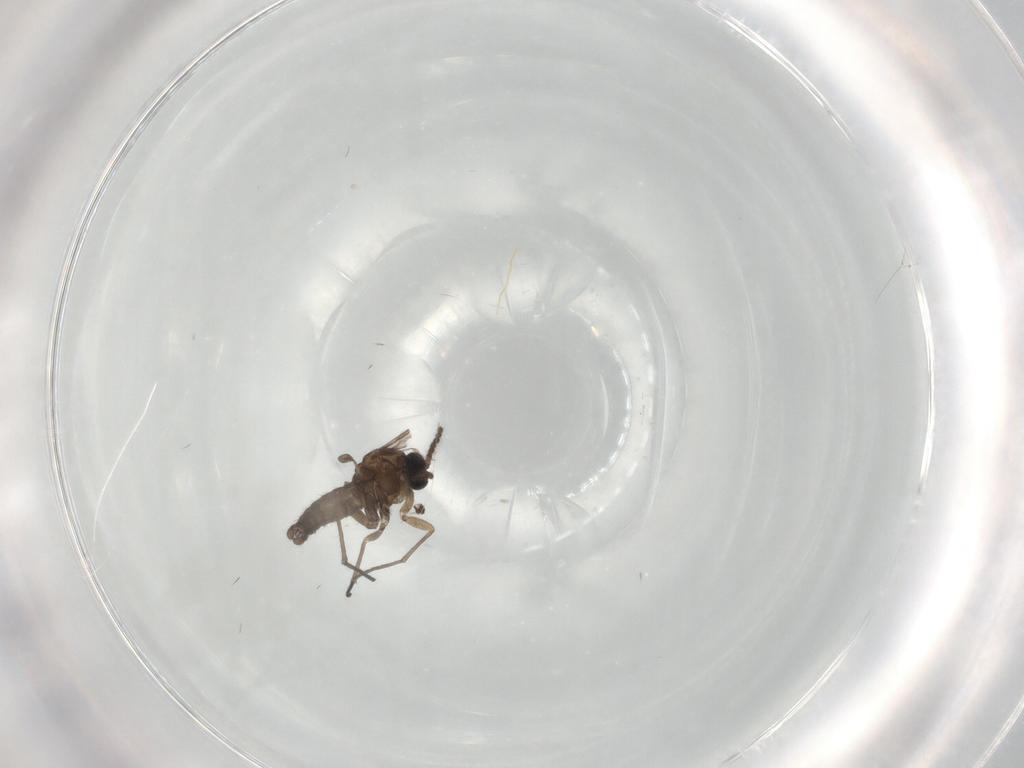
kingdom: Animalia
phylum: Arthropoda
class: Insecta
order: Diptera
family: Sciaridae
